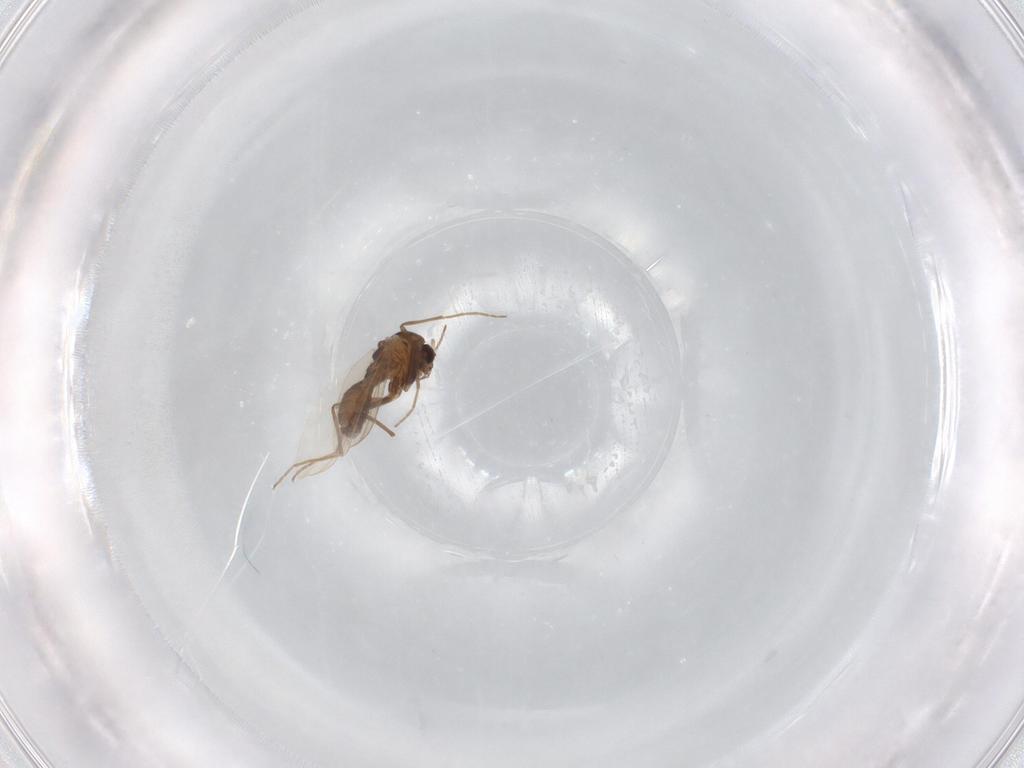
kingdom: Animalia
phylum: Arthropoda
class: Insecta
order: Diptera
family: Chironomidae
